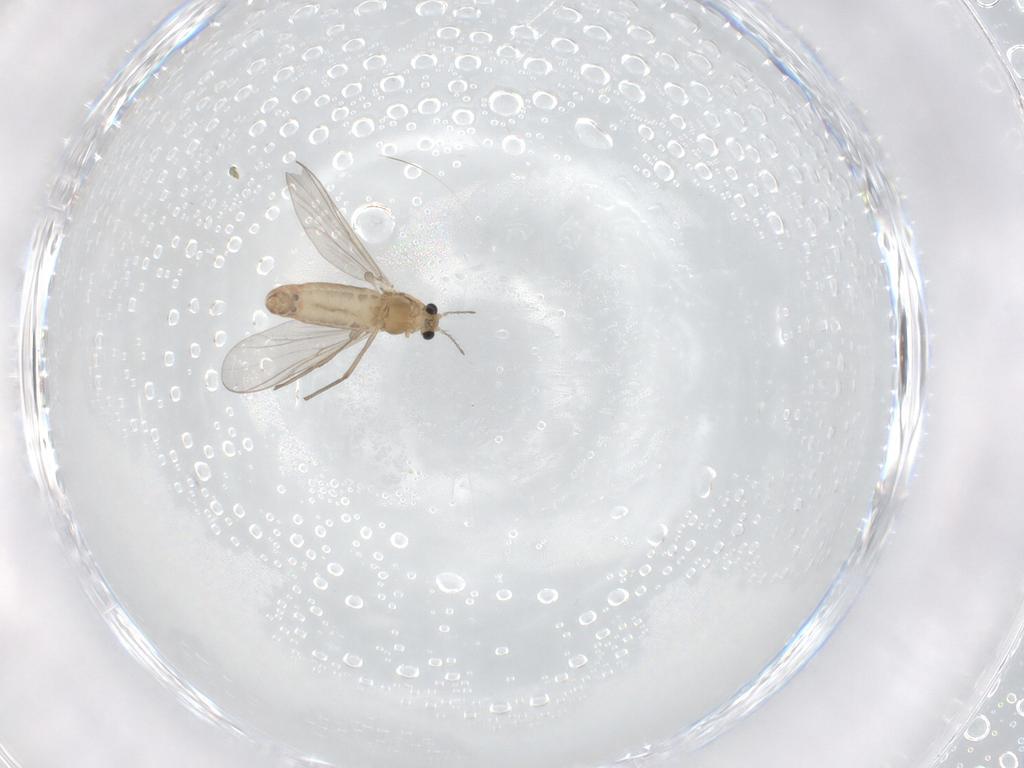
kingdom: Animalia
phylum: Arthropoda
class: Insecta
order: Diptera
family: Chironomidae
